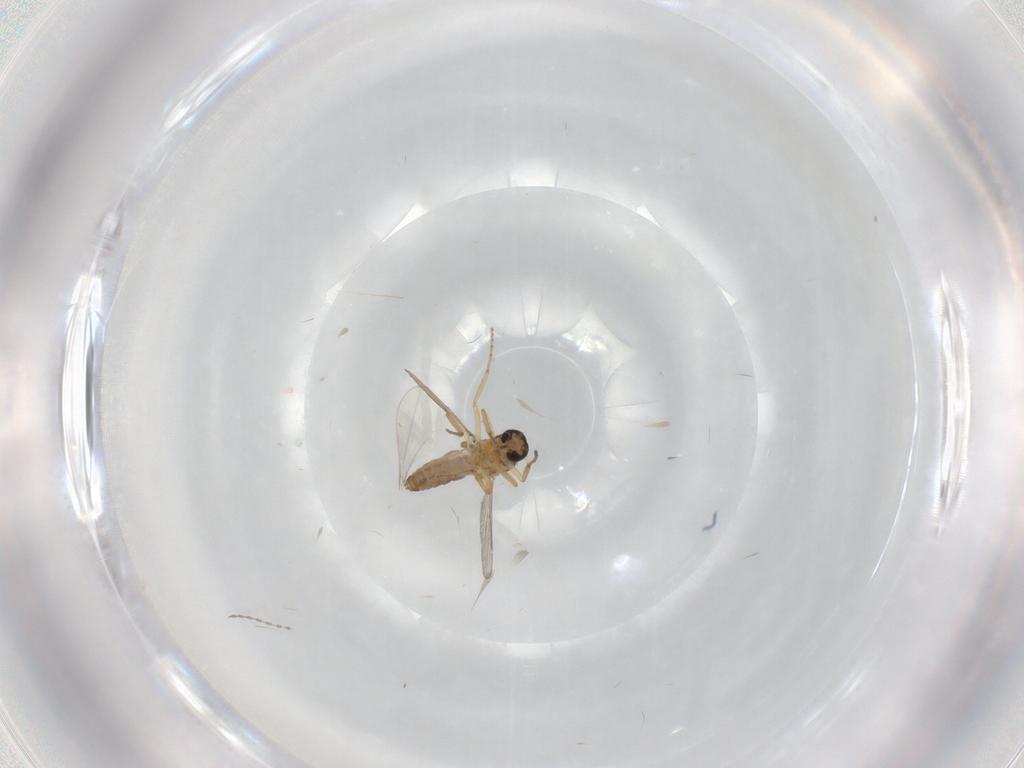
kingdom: Animalia
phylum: Arthropoda
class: Insecta
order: Diptera
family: Ceratopogonidae
